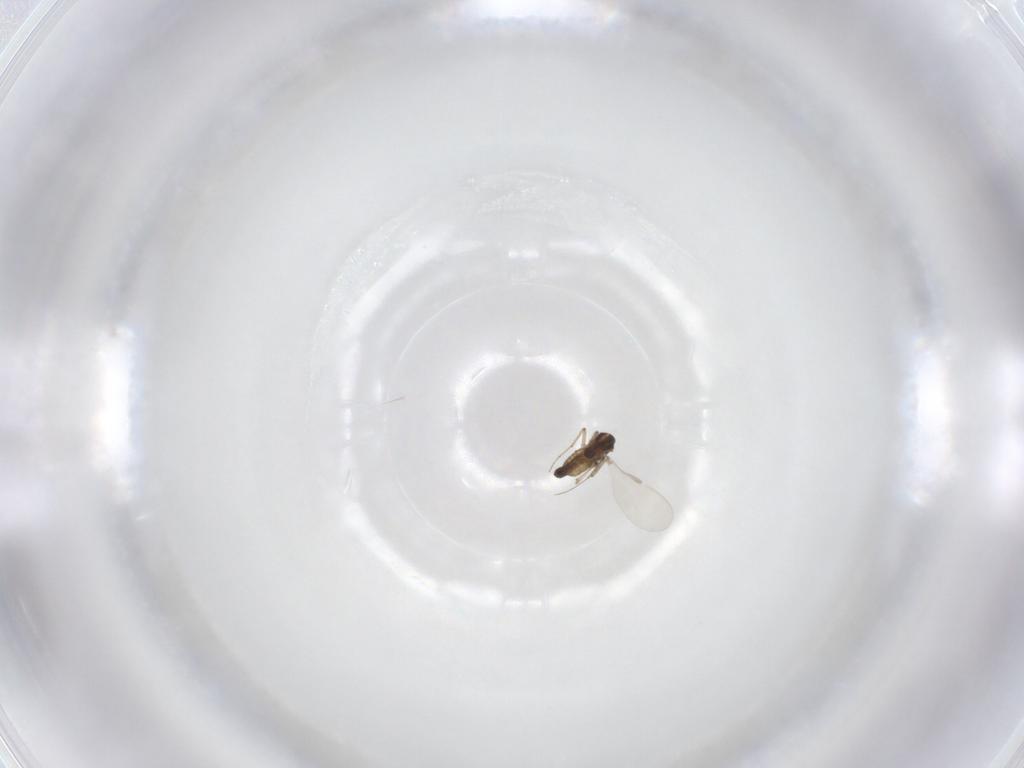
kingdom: Animalia
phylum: Arthropoda
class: Insecta
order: Diptera
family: Chironomidae
